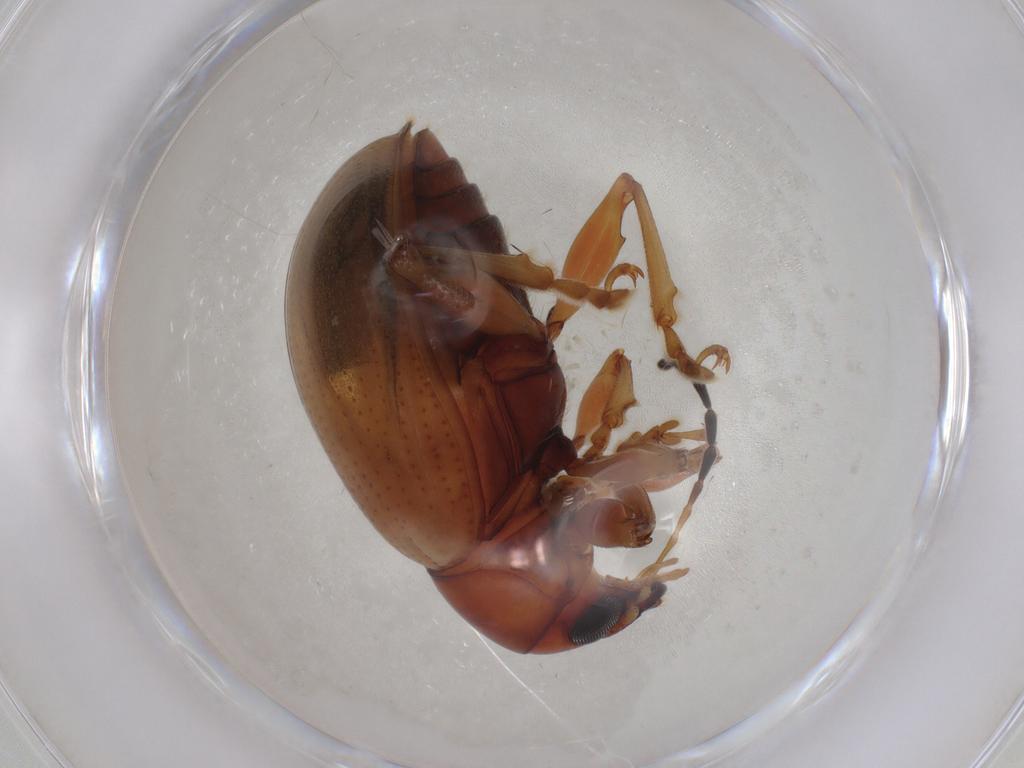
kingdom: Animalia
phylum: Arthropoda
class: Insecta
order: Coleoptera
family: Chrysomelidae
